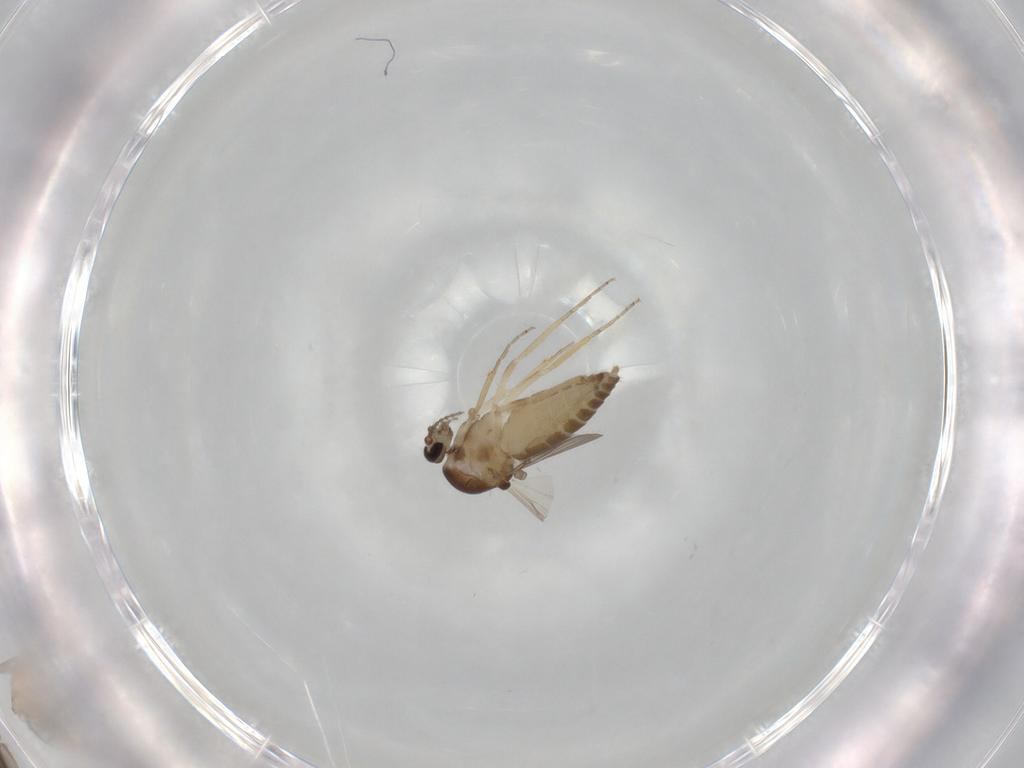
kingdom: Animalia
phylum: Arthropoda
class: Insecta
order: Diptera
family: Ceratopogonidae
